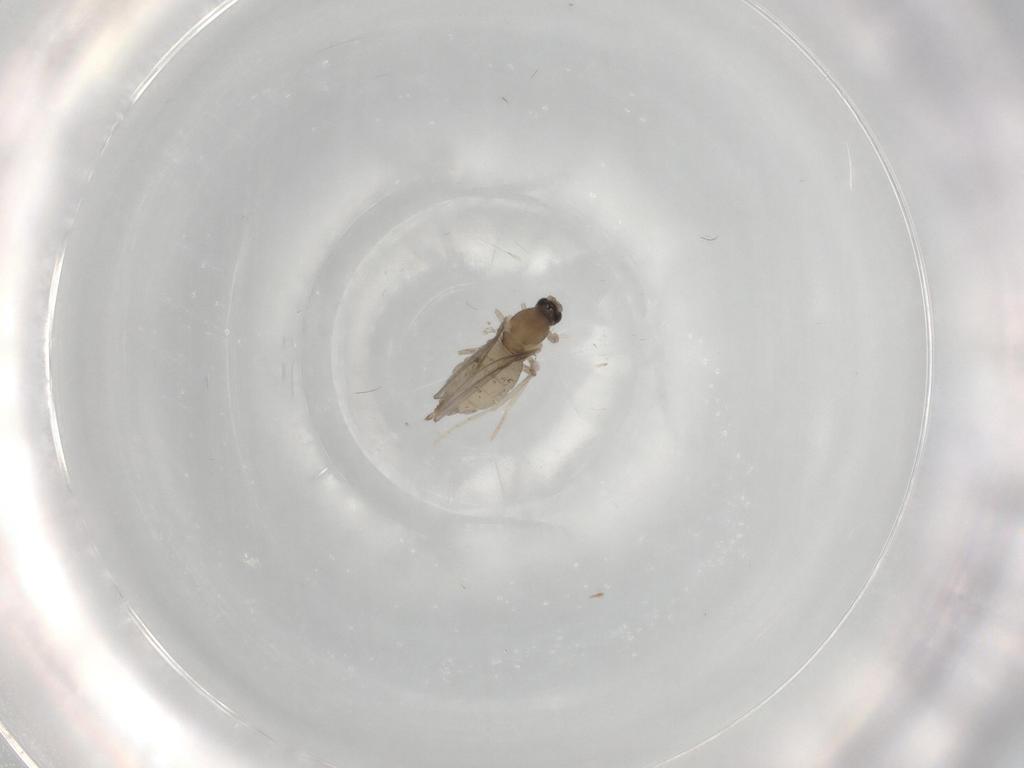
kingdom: Animalia
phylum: Arthropoda
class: Insecta
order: Diptera
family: Cecidomyiidae
